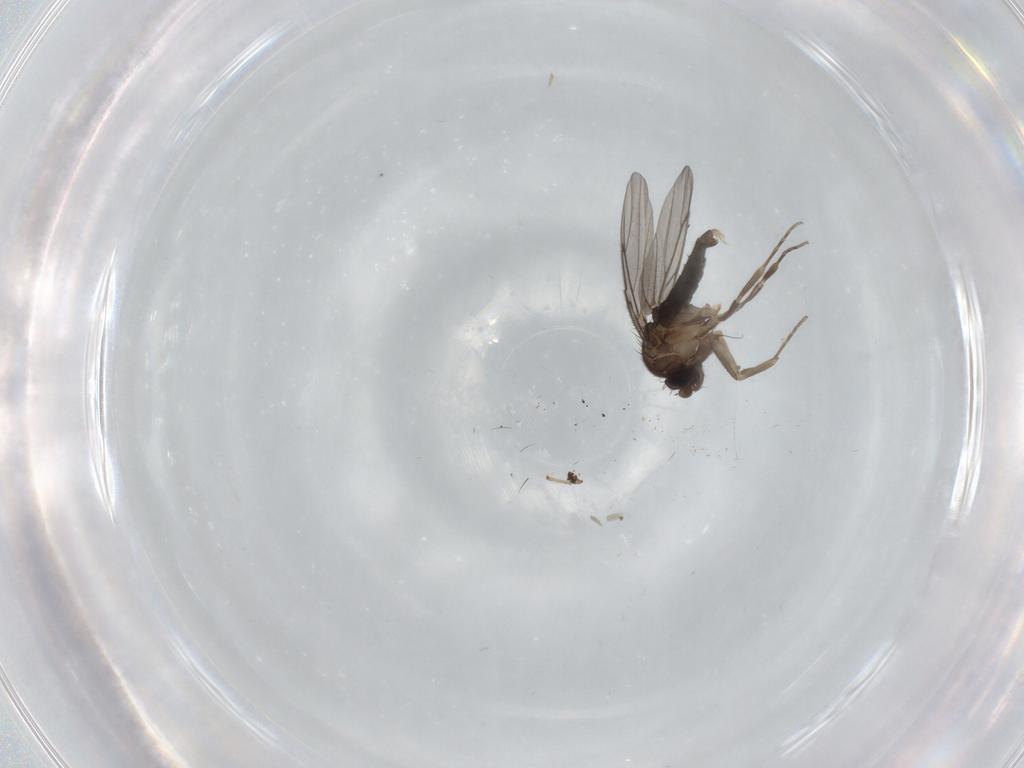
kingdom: Animalia
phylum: Arthropoda
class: Insecta
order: Diptera
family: Phoridae
